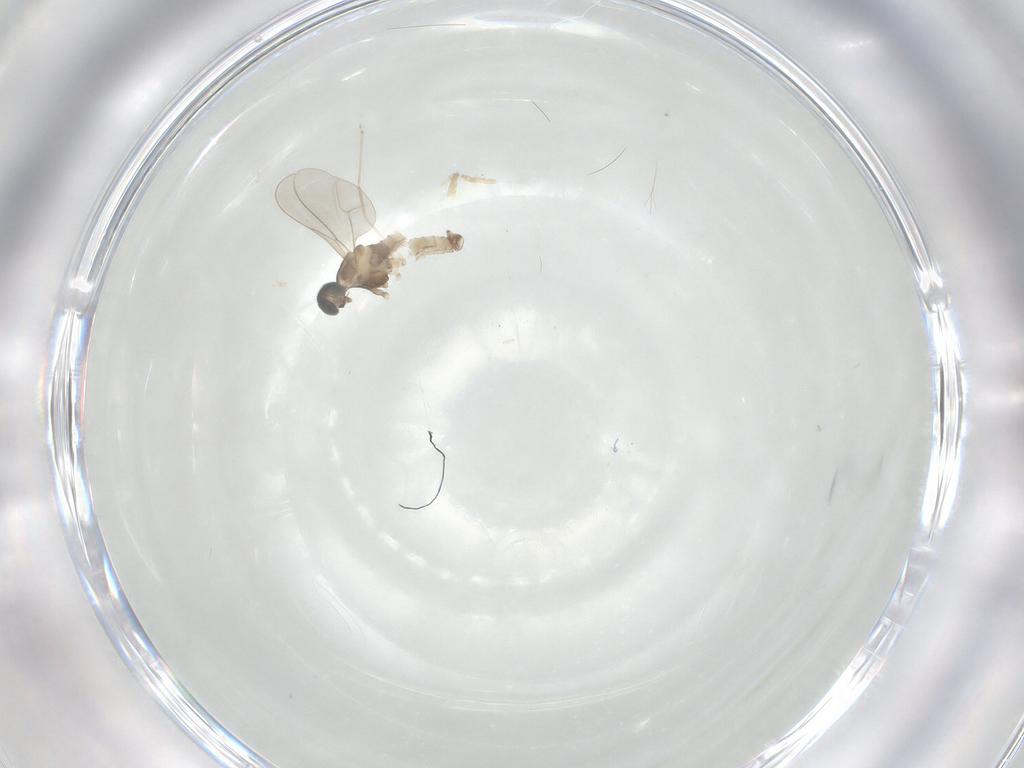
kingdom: Animalia
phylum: Arthropoda
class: Insecta
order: Diptera
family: Cecidomyiidae
